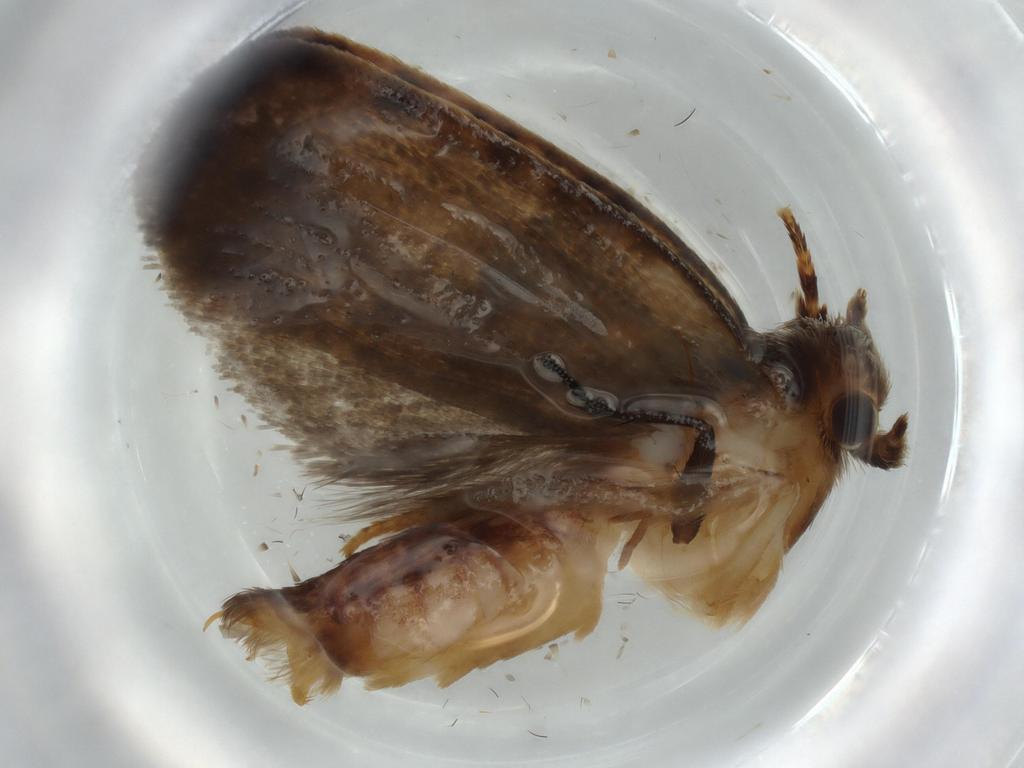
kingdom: Animalia
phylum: Arthropoda
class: Insecta
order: Lepidoptera
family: Tineidae
